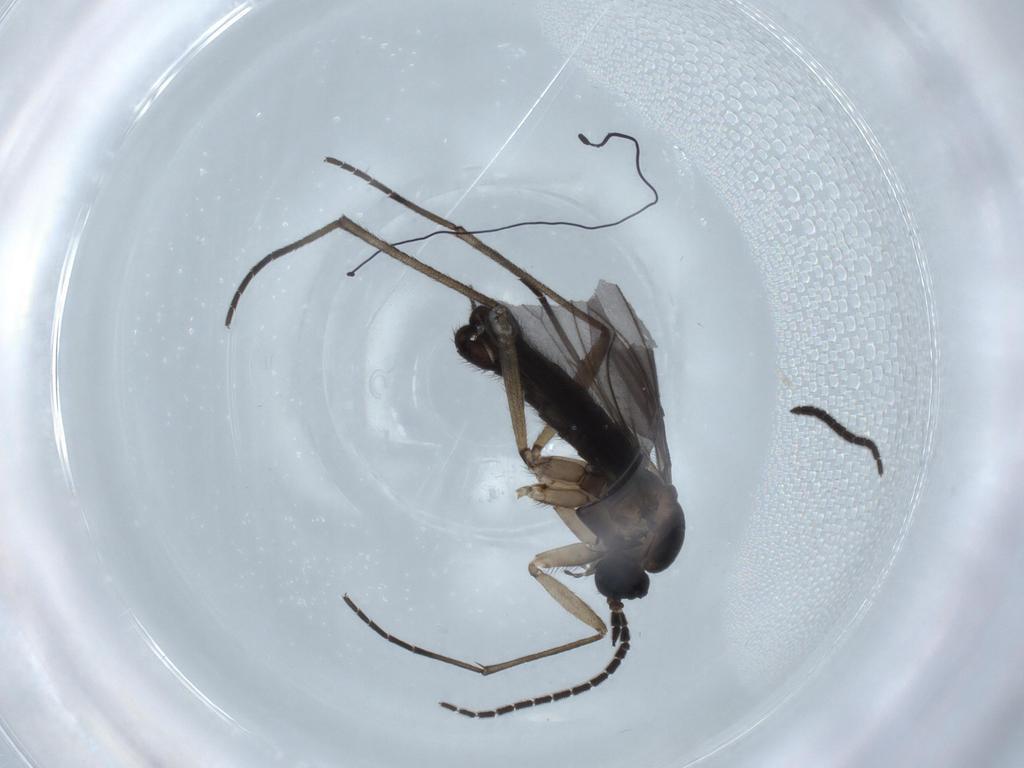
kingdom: Animalia
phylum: Arthropoda
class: Insecta
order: Diptera
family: Sciaridae
